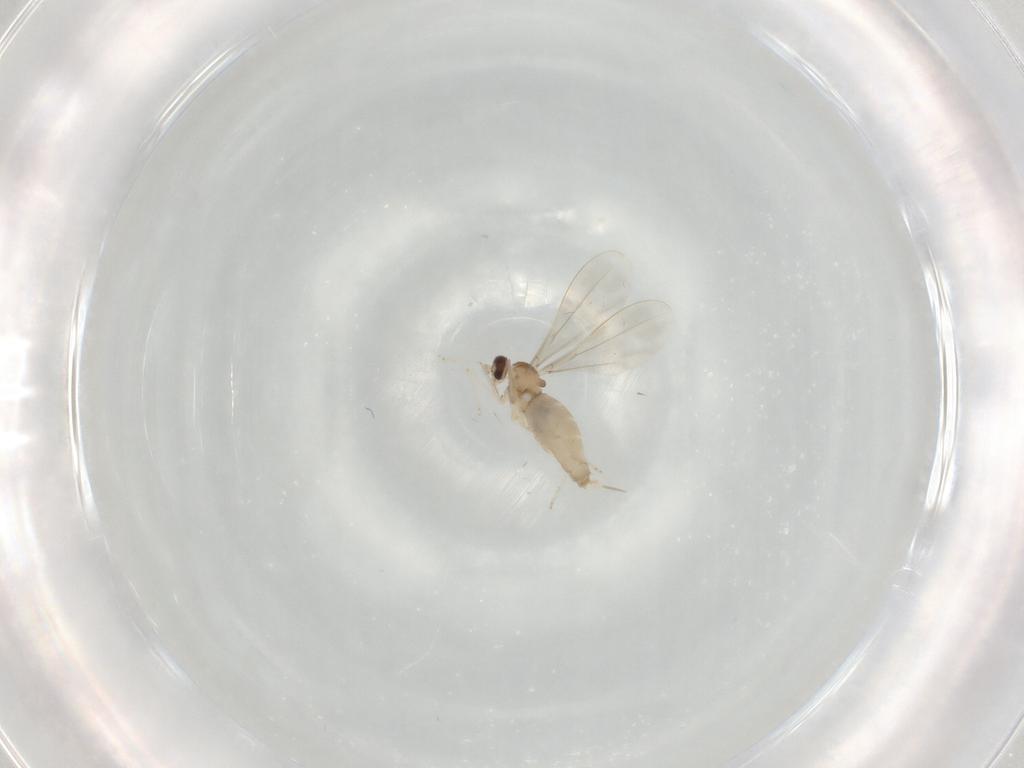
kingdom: Animalia
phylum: Arthropoda
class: Insecta
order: Diptera
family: Cecidomyiidae
